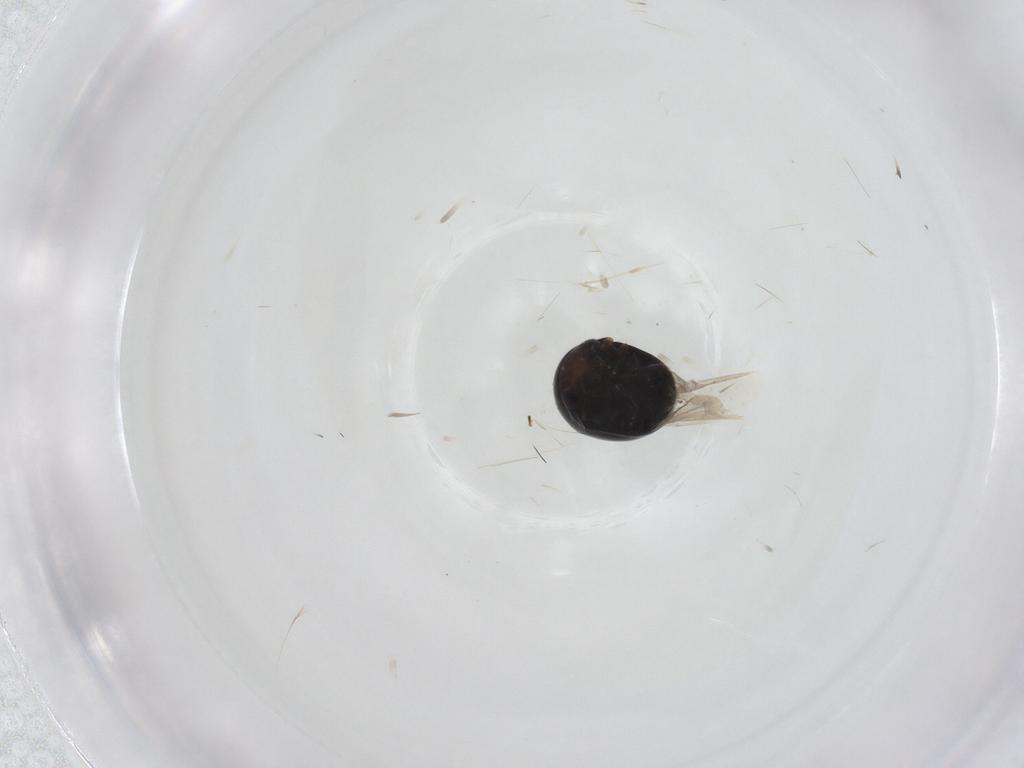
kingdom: Animalia
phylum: Arthropoda
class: Insecta
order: Coleoptera
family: Cybocephalidae
